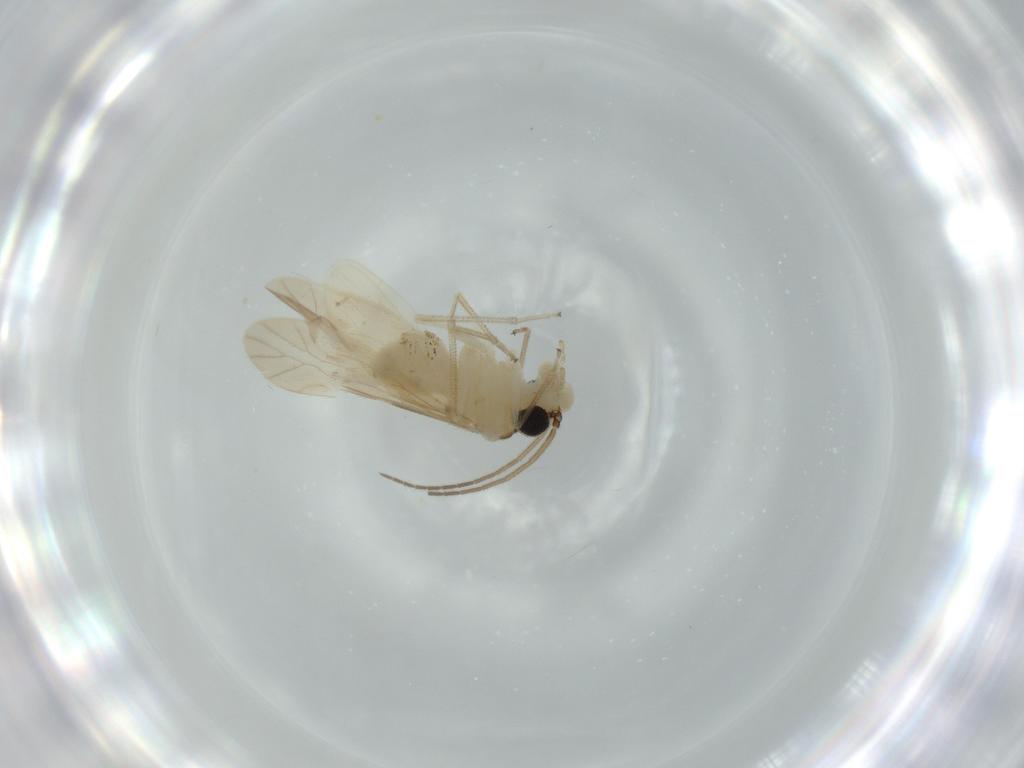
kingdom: Animalia
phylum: Arthropoda
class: Insecta
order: Psocodea
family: Caeciliusidae
